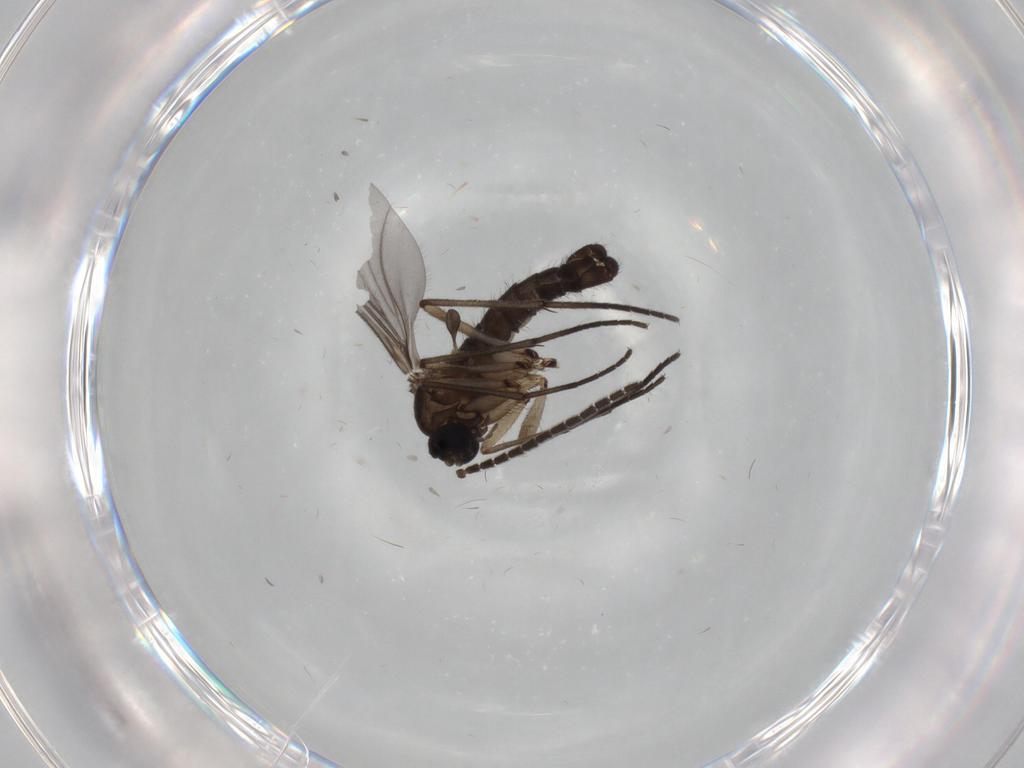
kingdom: Animalia
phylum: Arthropoda
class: Insecta
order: Diptera
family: Sciaridae
